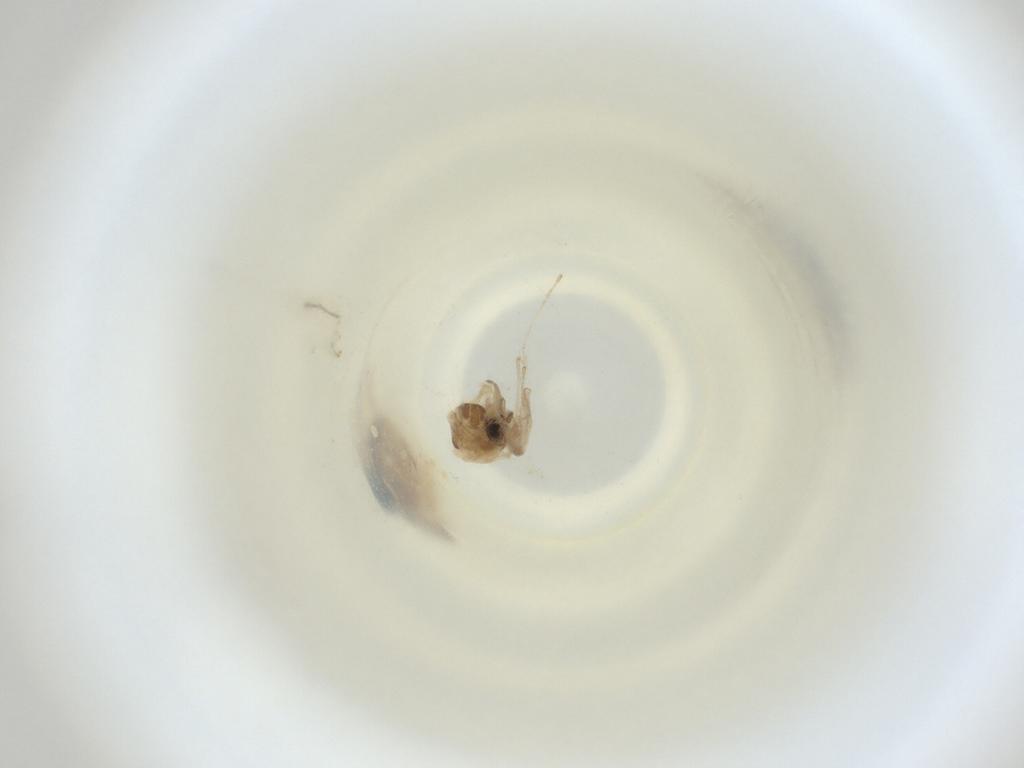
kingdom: Animalia
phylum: Arthropoda
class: Insecta
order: Diptera
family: Cecidomyiidae
